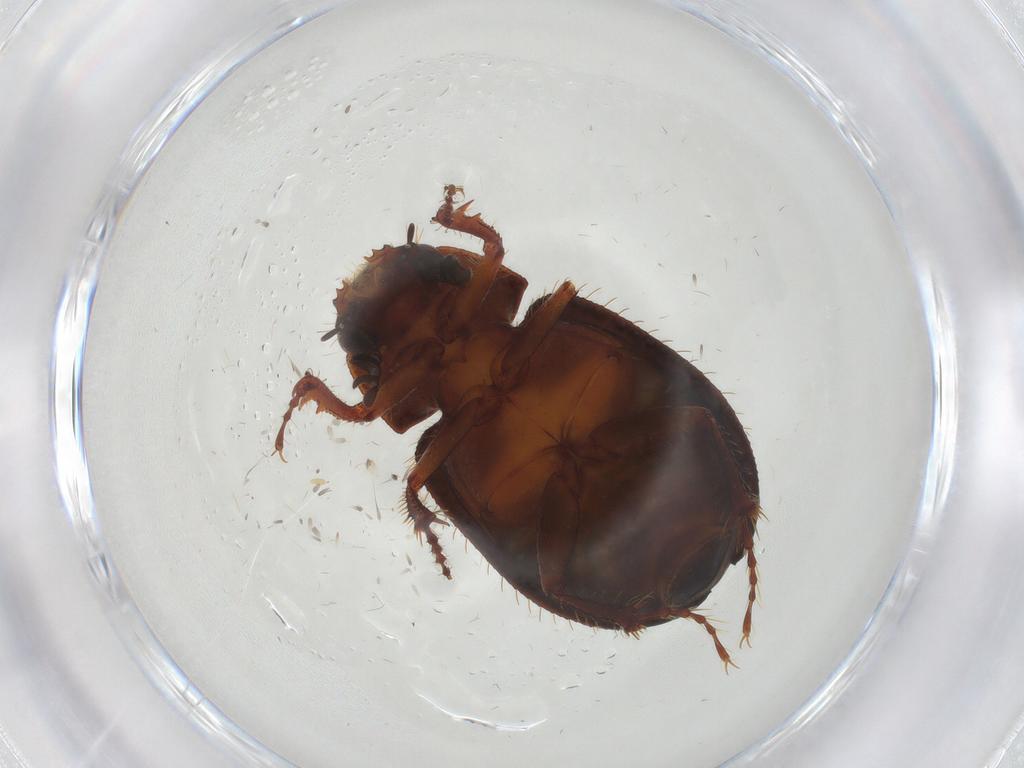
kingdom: Animalia
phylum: Arthropoda
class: Insecta
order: Coleoptera
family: Hybosoridae
